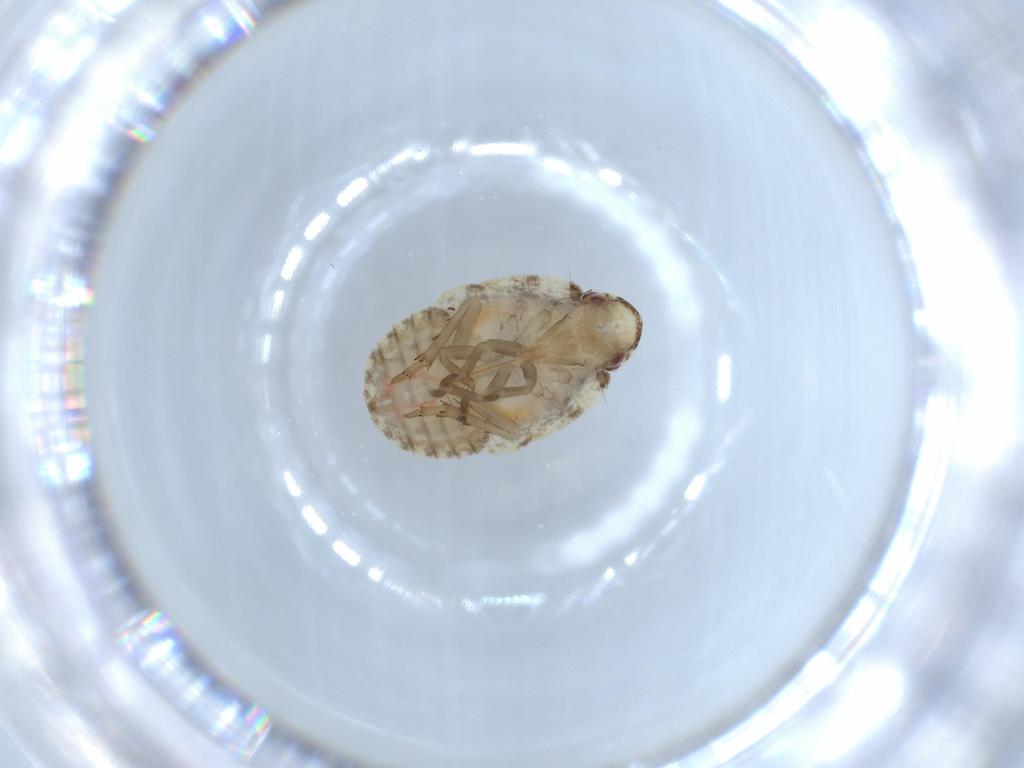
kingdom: Animalia
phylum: Arthropoda
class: Insecta
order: Hemiptera
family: Flatidae
